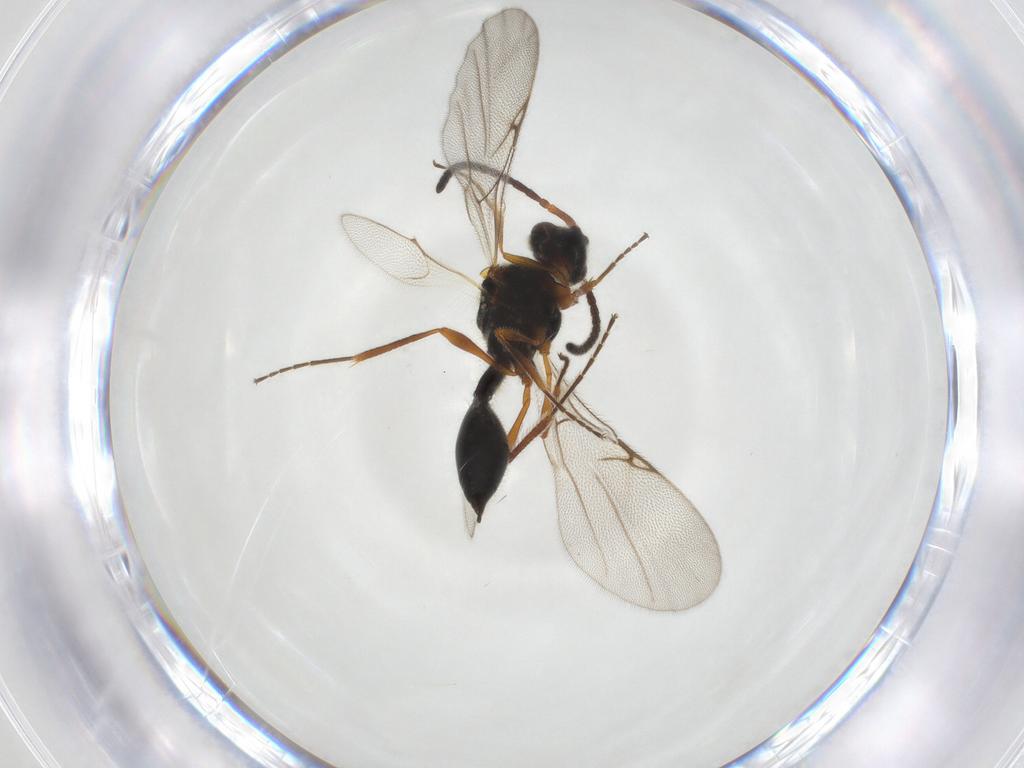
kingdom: Animalia
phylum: Arthropoda
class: Insecta
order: Hymenoptera
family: Diapriidae
